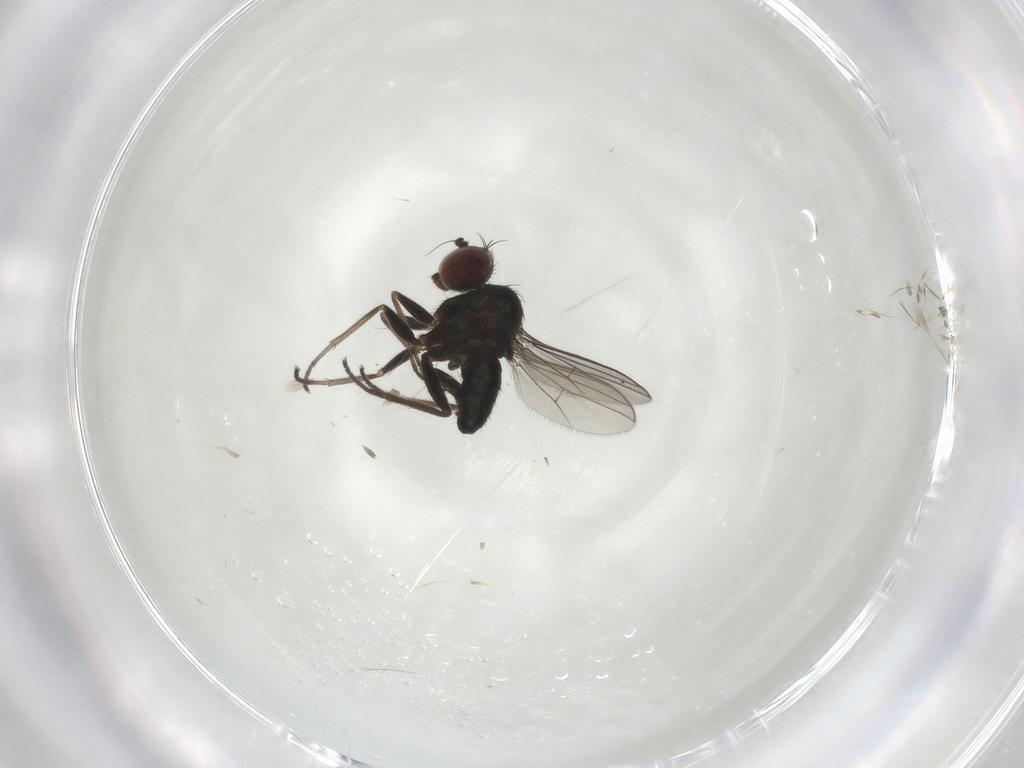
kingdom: Animalia
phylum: Arthropoda
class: Insecta
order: Diptera
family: Dolichopodidae
